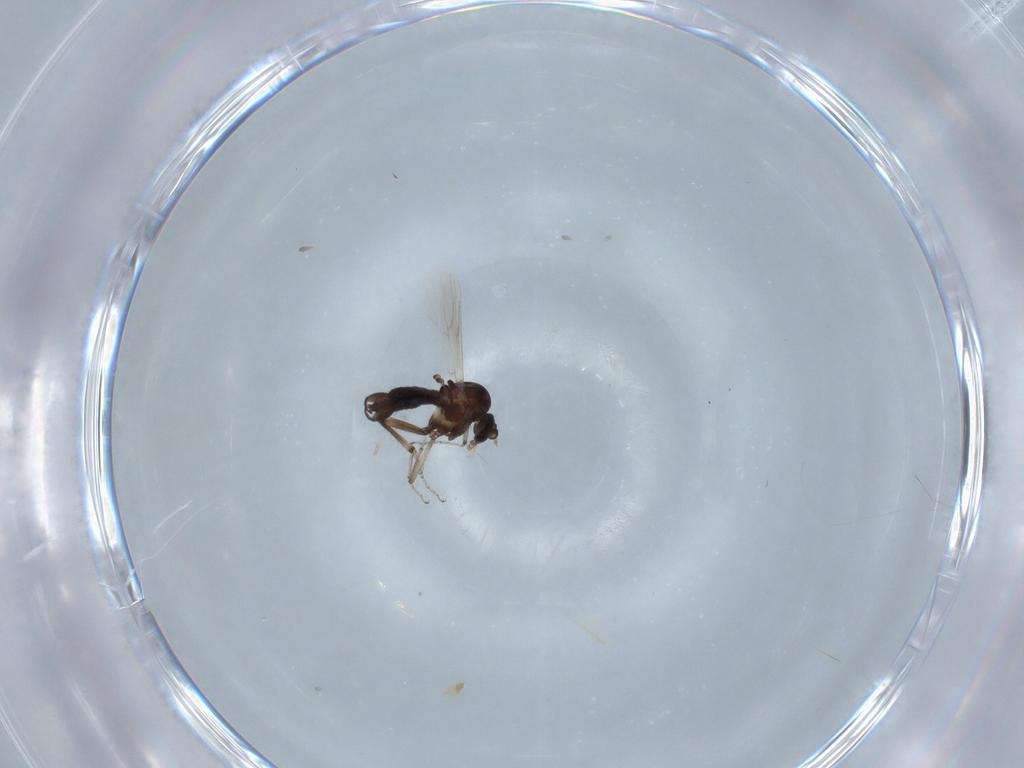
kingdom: Animalia
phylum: Arthropoda
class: Insecta
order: Diptera
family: Ceratopogonidae
